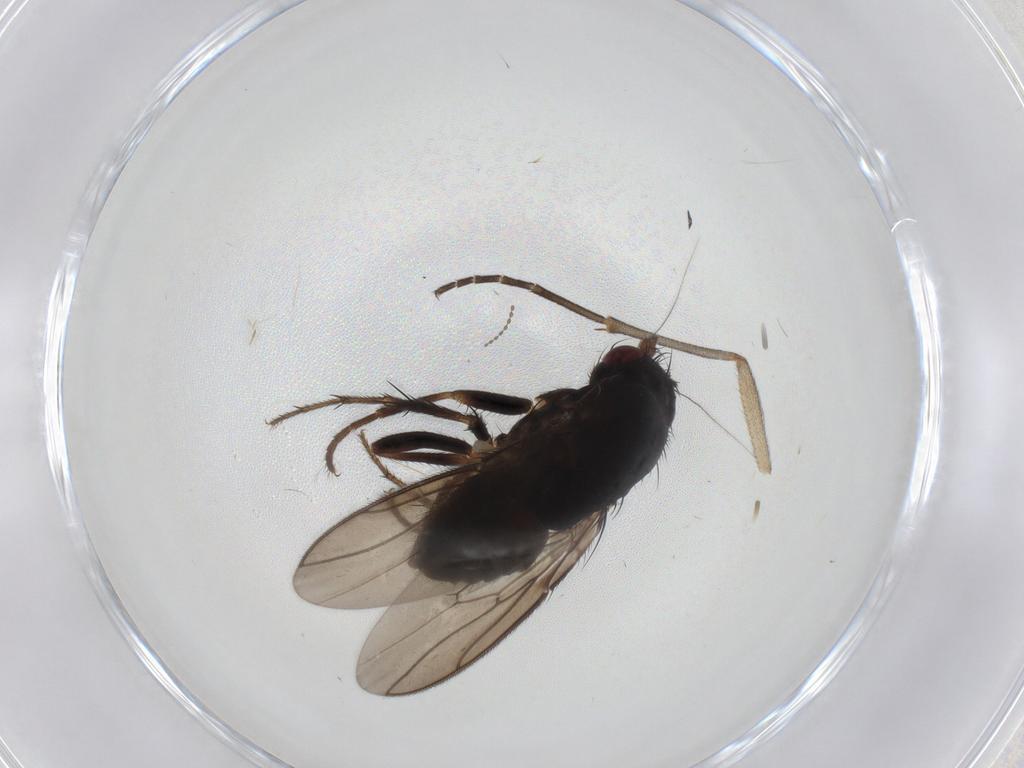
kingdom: Animalia
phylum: Arthropoda
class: Insecta
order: Diptera
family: Sphaeroceridae
